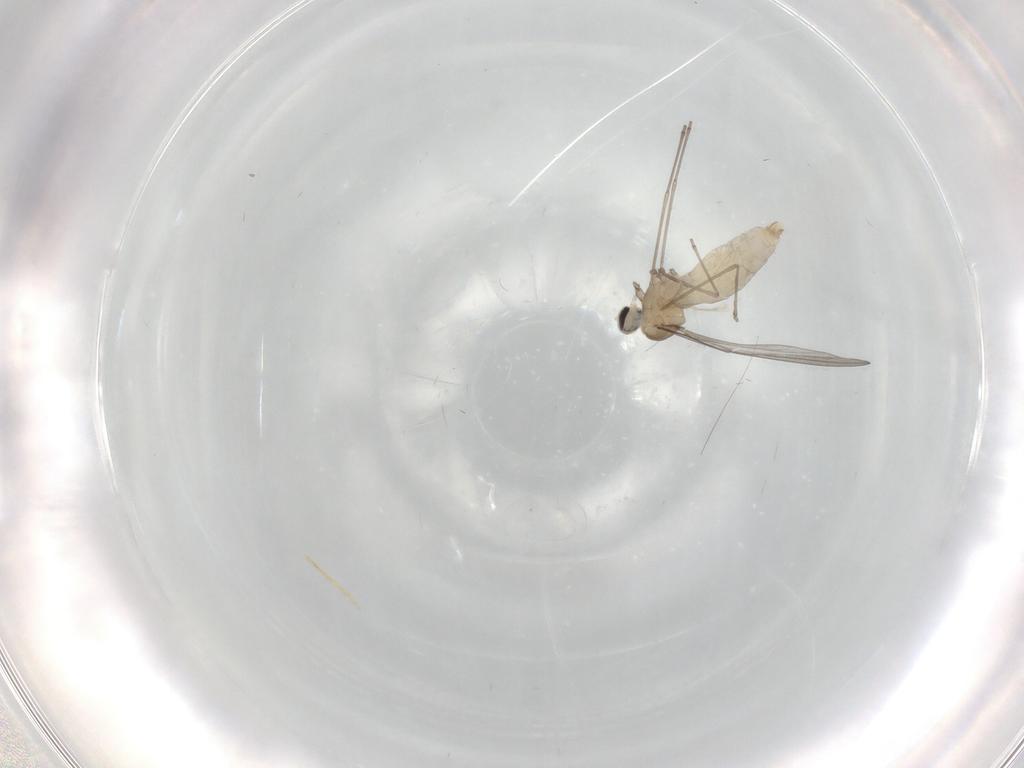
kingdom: Animalia
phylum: Arthropoda
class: Insecta
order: Diptera
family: Cecidomyiidae
